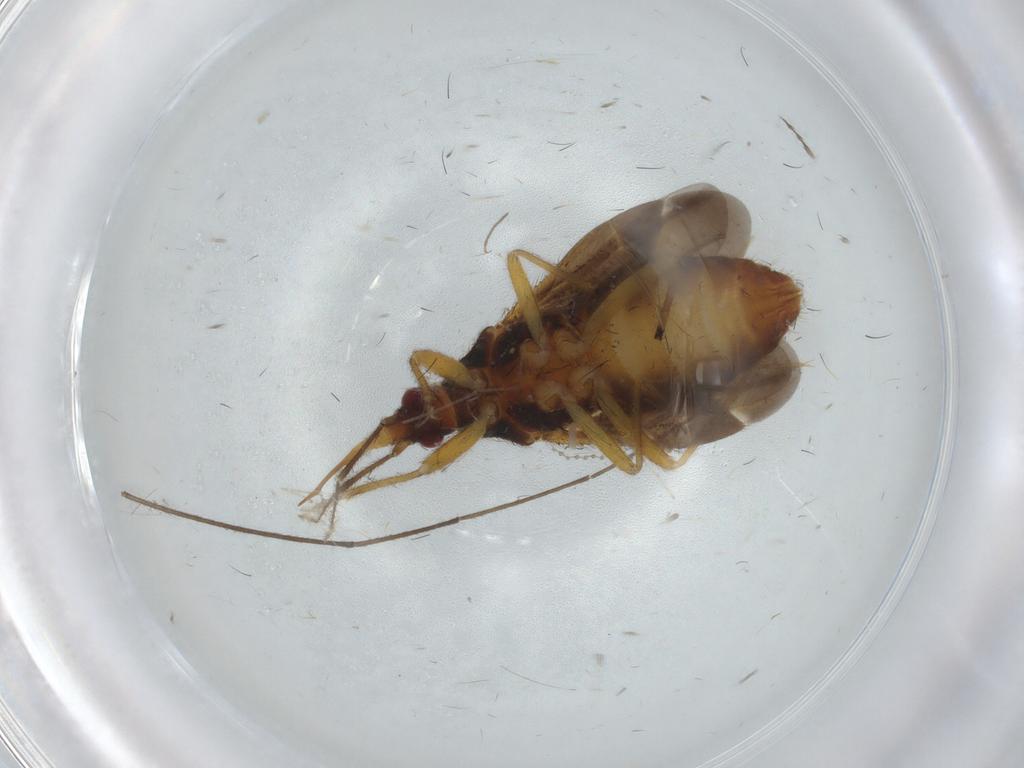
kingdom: Animalia
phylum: Arthropoda
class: Insecta
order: Hemiptera
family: Anthocoridae
